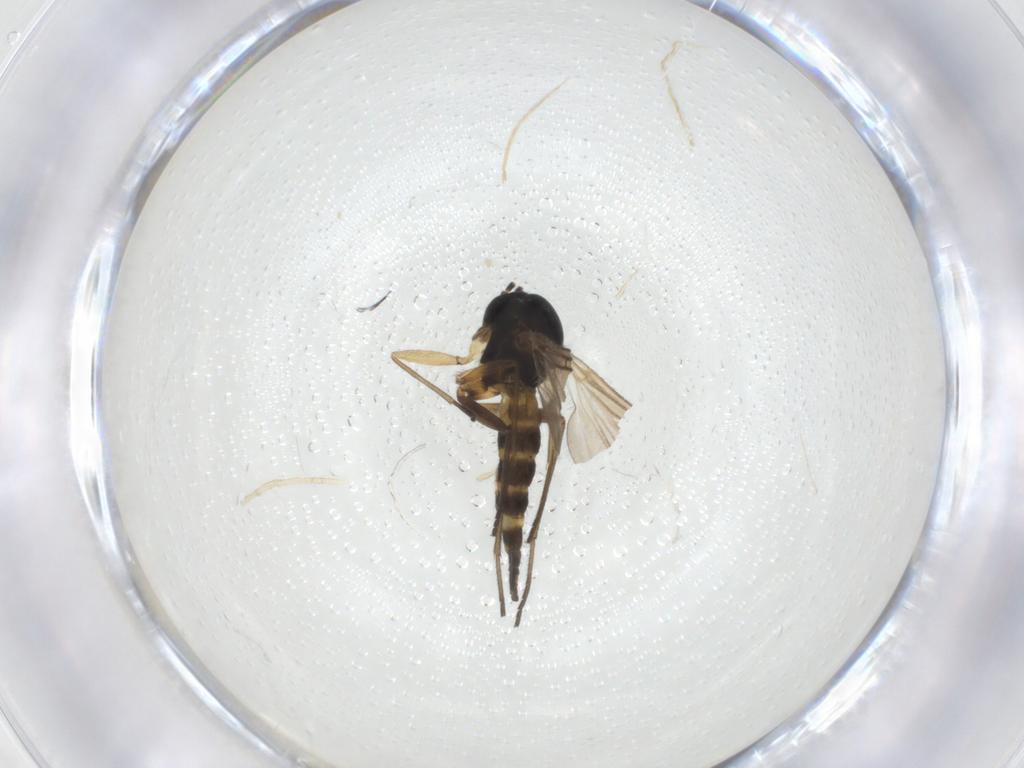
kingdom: Animalia
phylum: Arthropoda
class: Insecta
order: Diptera
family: Sciaridae
